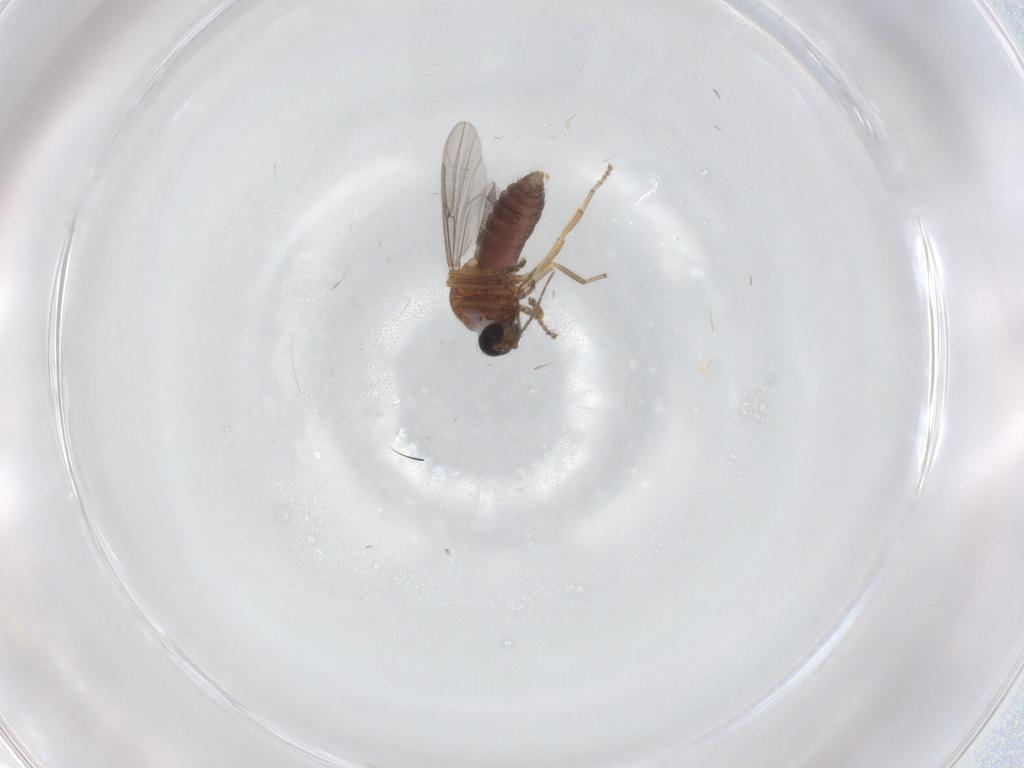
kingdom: Animalia
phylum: Arthropoda
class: Insecta
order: Diptera
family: Ceratopogonidae
